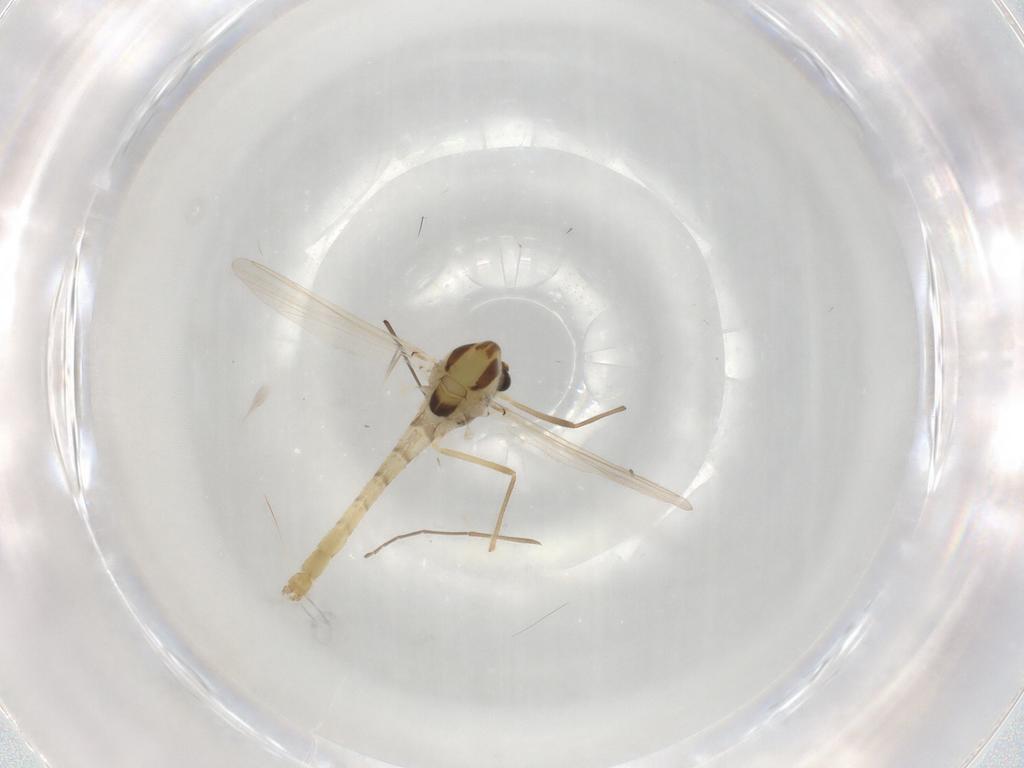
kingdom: Animalia
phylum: Arthropoda
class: Insecta
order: Diptera
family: Chironomidae
